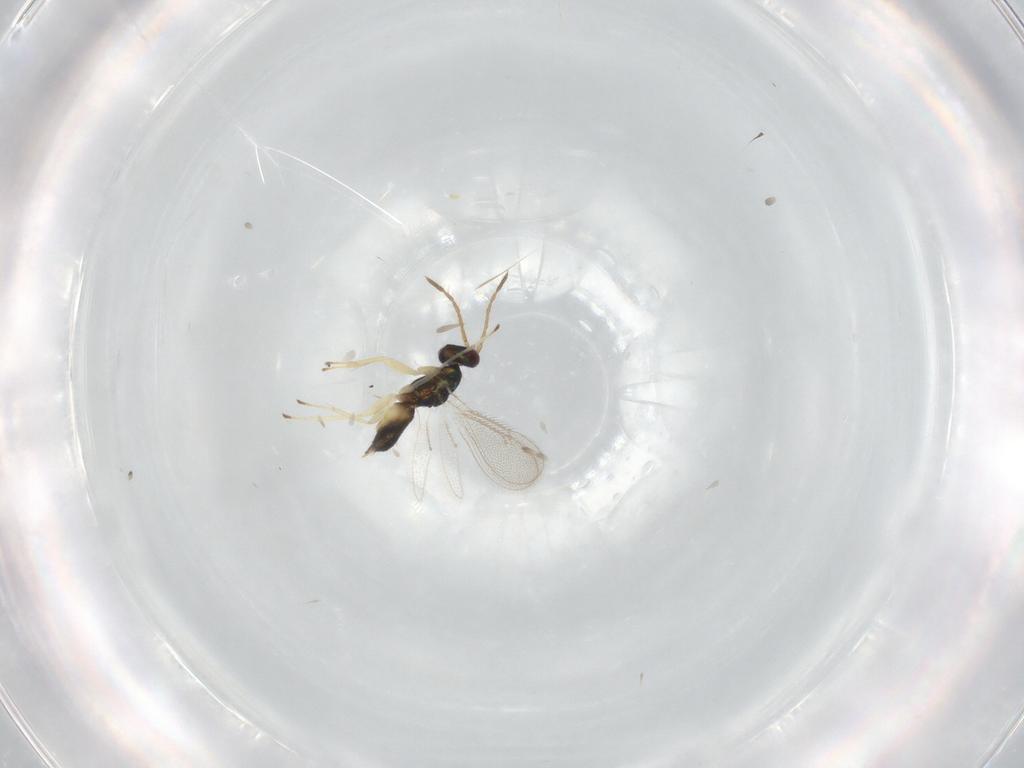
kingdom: Animalia
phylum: Arthropoda
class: Insecta
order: Hymenoptera
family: Eulophidae
